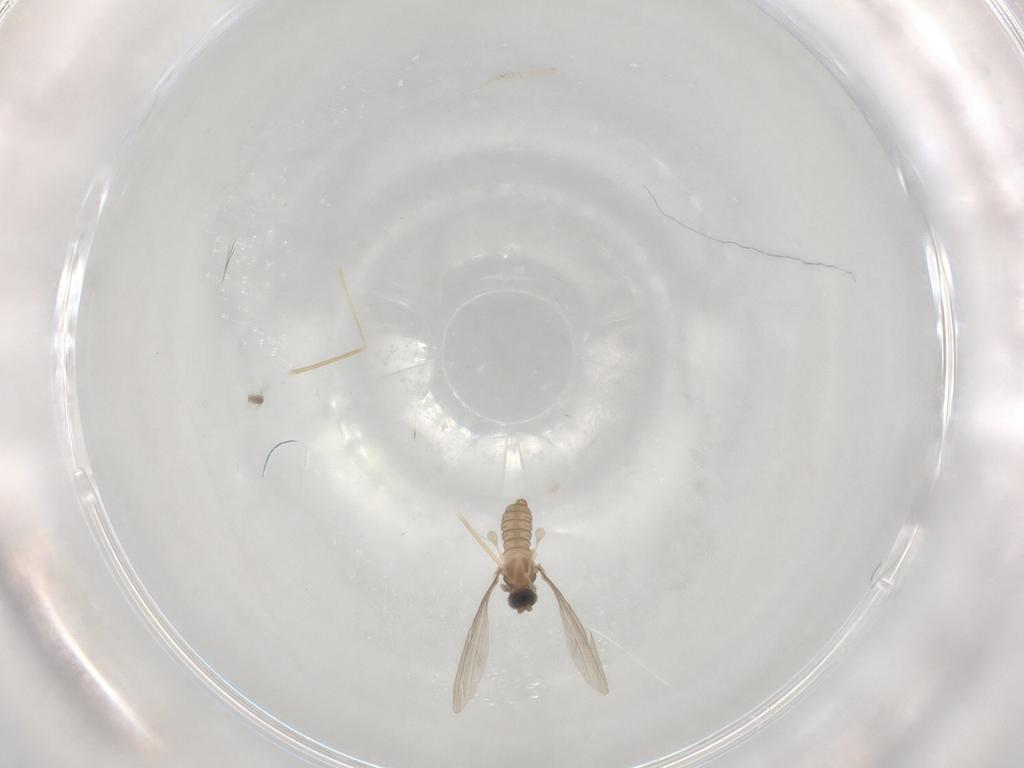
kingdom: Animalia
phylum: Arthropoda
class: Insecta
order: Diptera
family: Cecidomyiidae
